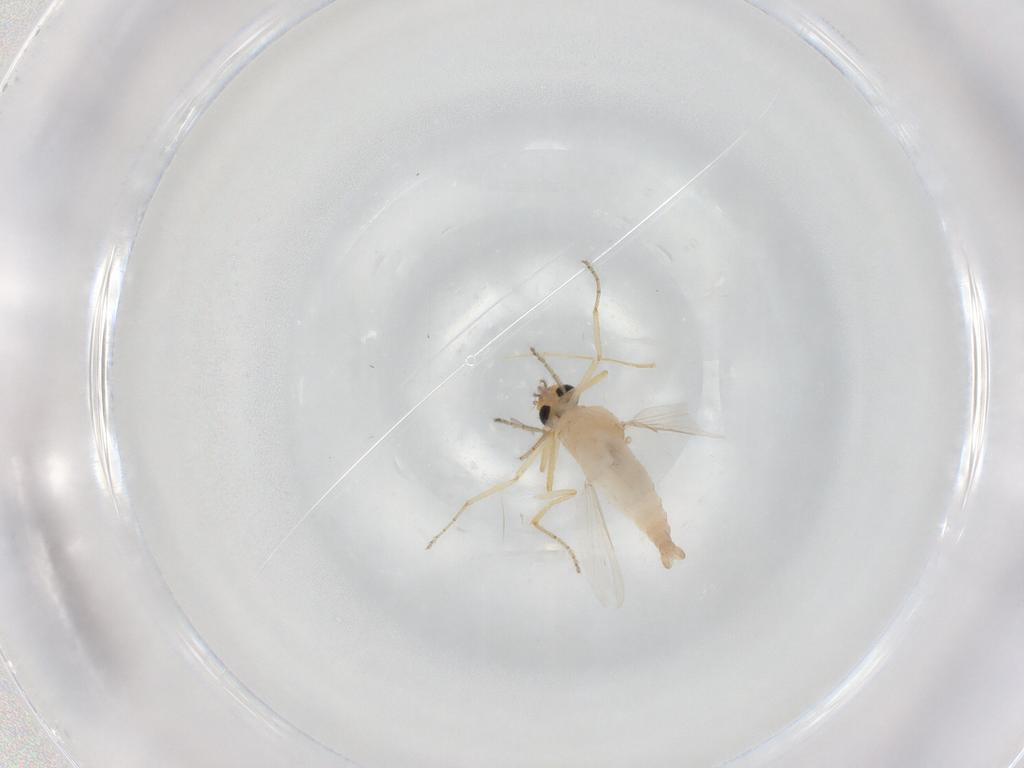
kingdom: Animalia
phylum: Arthropoda
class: Insecta
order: Diptera
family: Ceratopogonidae
